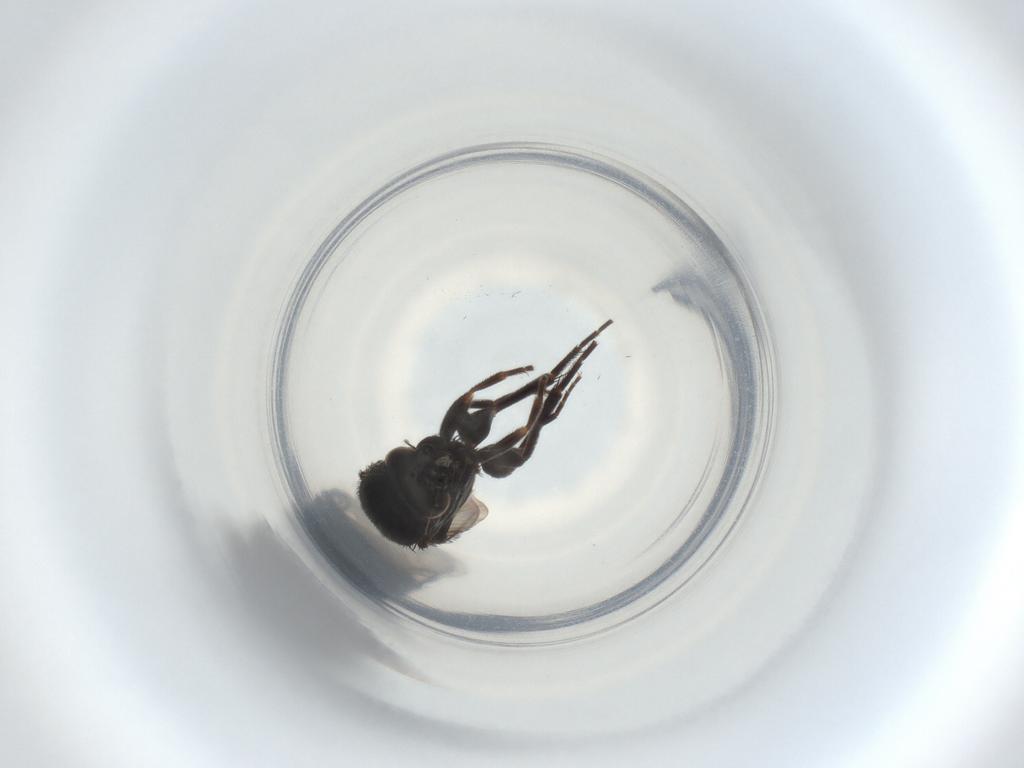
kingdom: Animalia
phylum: Arthropoda
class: Insecta
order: Diptera
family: Phoridae
